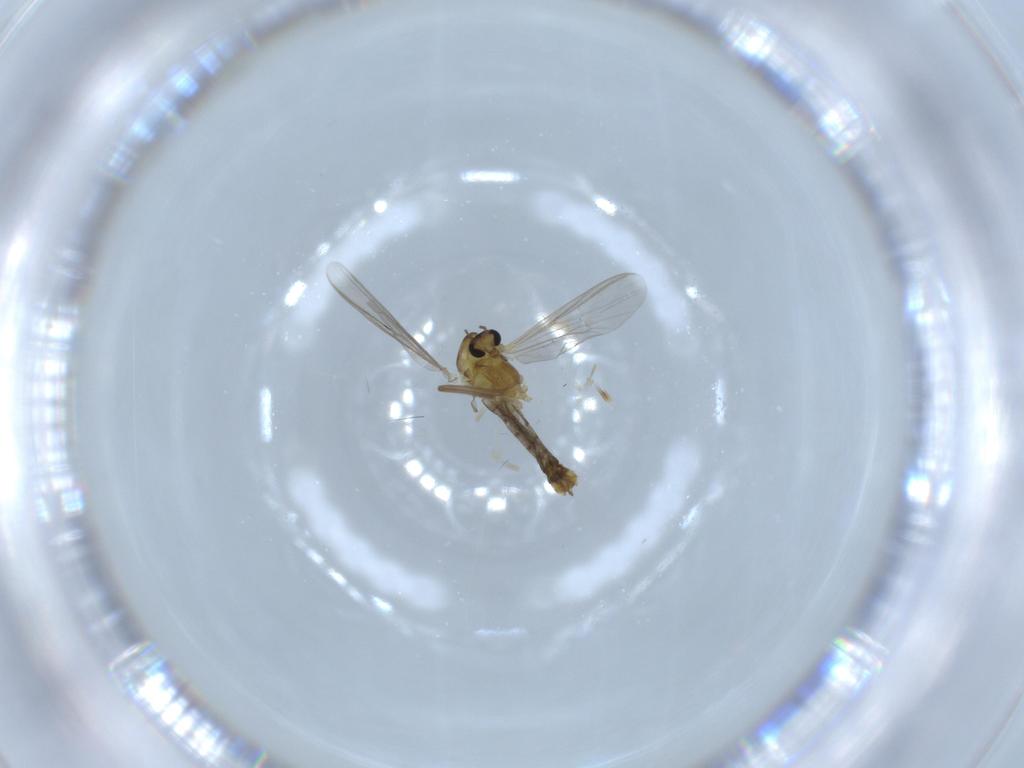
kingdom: Animalia
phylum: Arthropoda
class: Insecta
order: Diptera
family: Chironomidae
